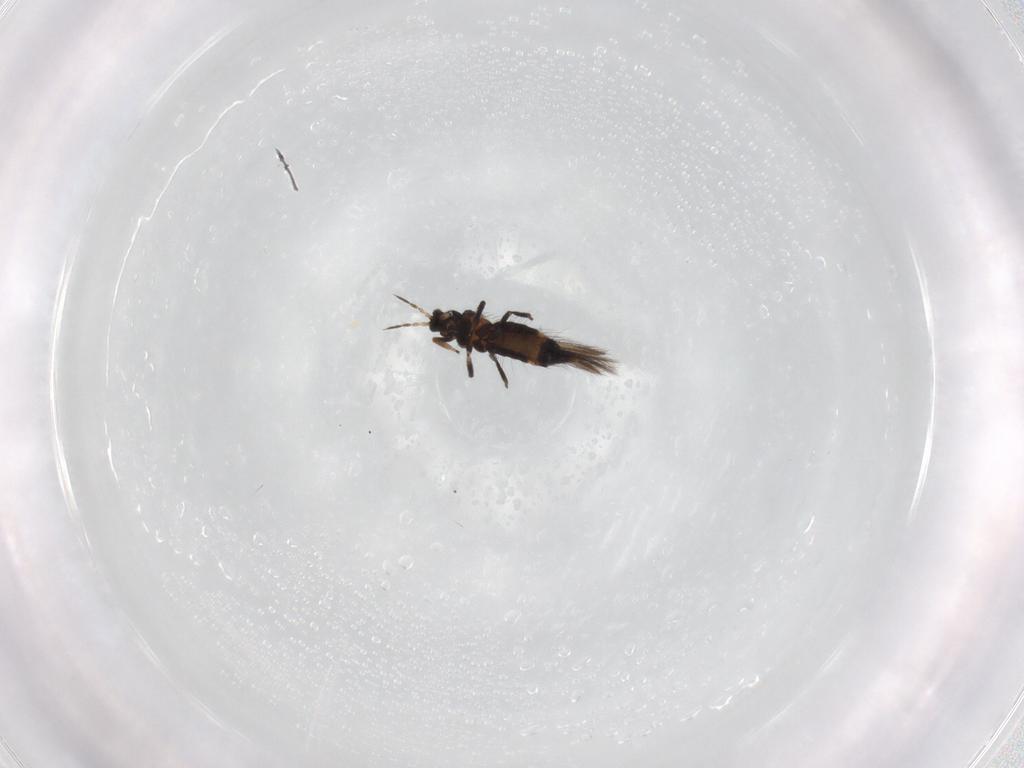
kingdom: Animalia
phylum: Arthropoda
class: Insecta
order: Thysanoptera
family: Thripidae
